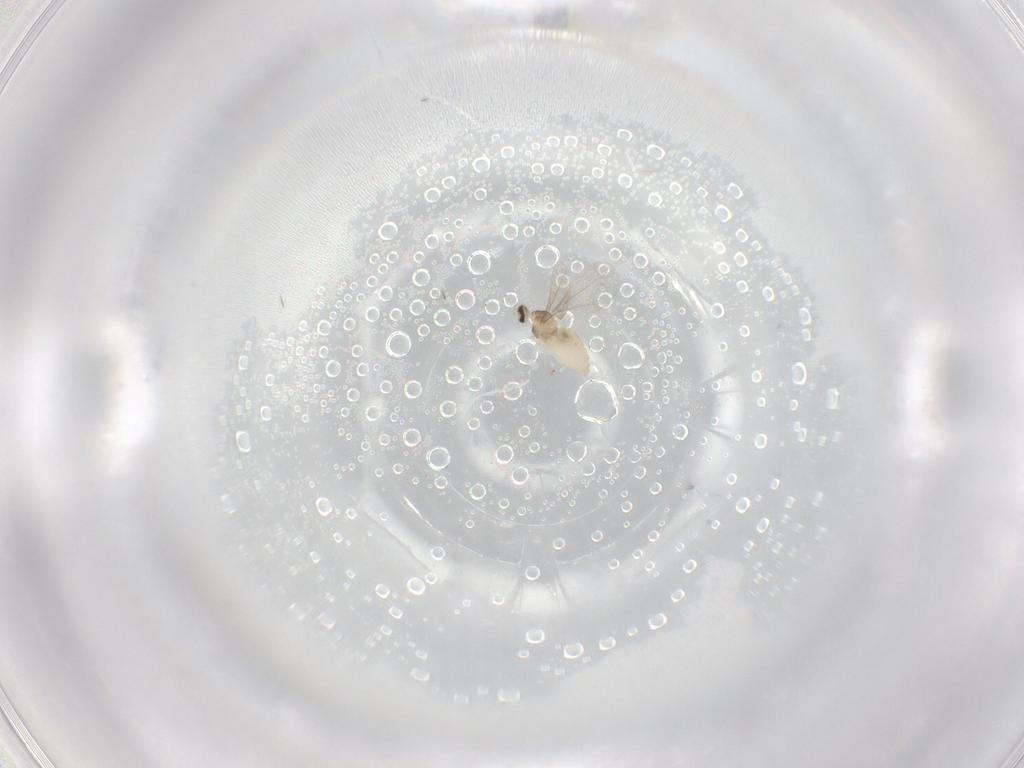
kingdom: Animalia
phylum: Arthropoda
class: Insecta
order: Diptera
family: Cecidomyiidae
